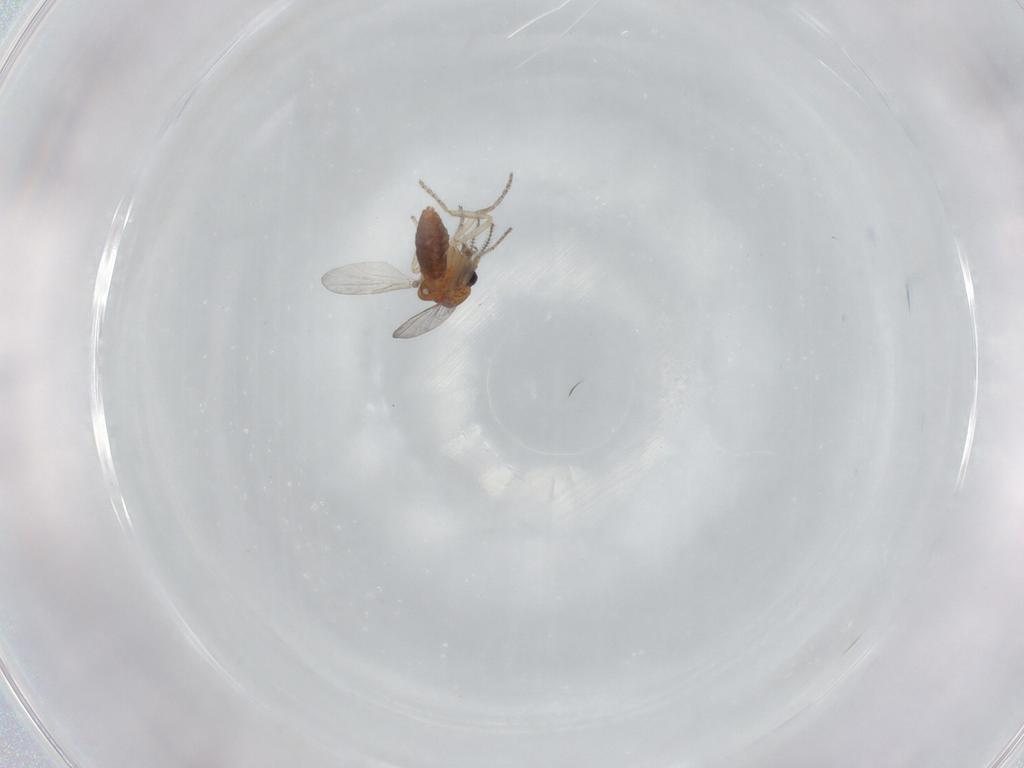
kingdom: Animalia
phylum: Arthropoda
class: Insecta
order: Diptera
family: Ceratopogonidae
